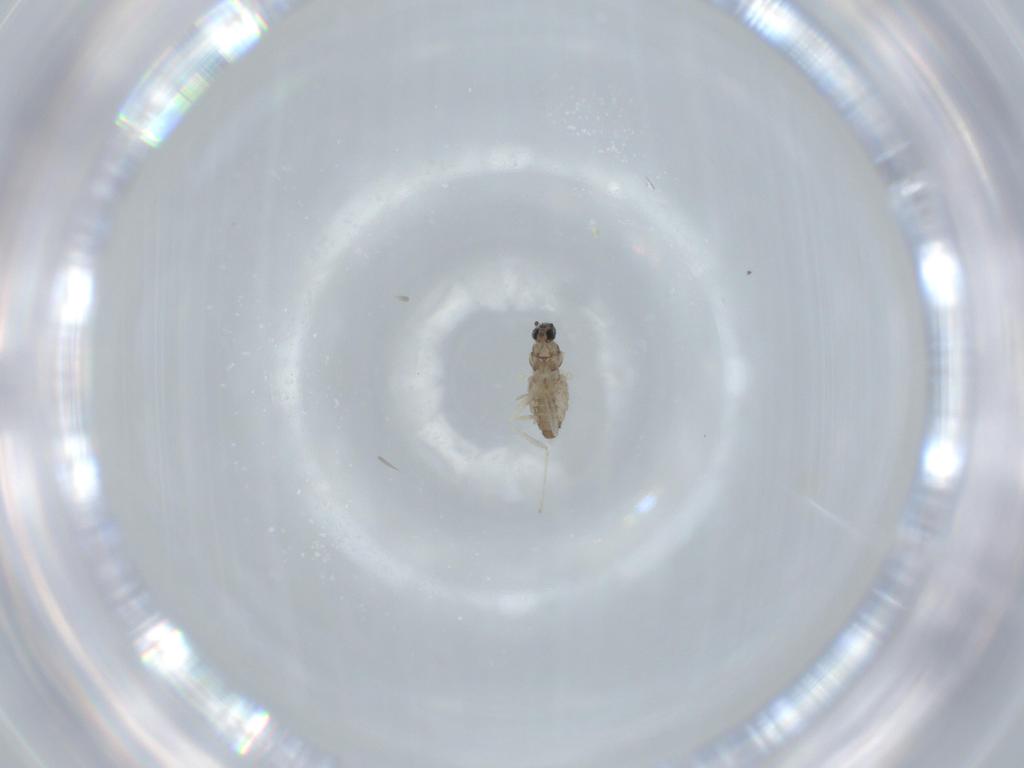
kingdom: Animalia
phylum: Arthropoda
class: Insecta
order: Diptera
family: Cecidomyiidae
